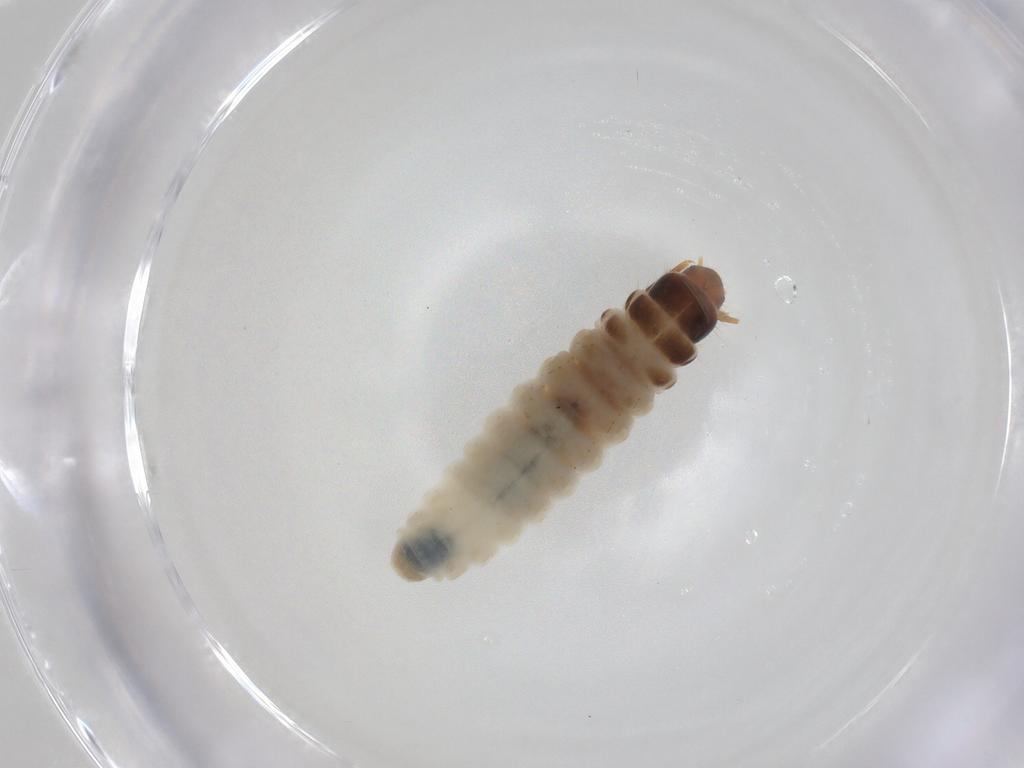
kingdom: Animalia
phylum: Arthropoda
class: Insecta
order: Lepidoptera
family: Psychidae
